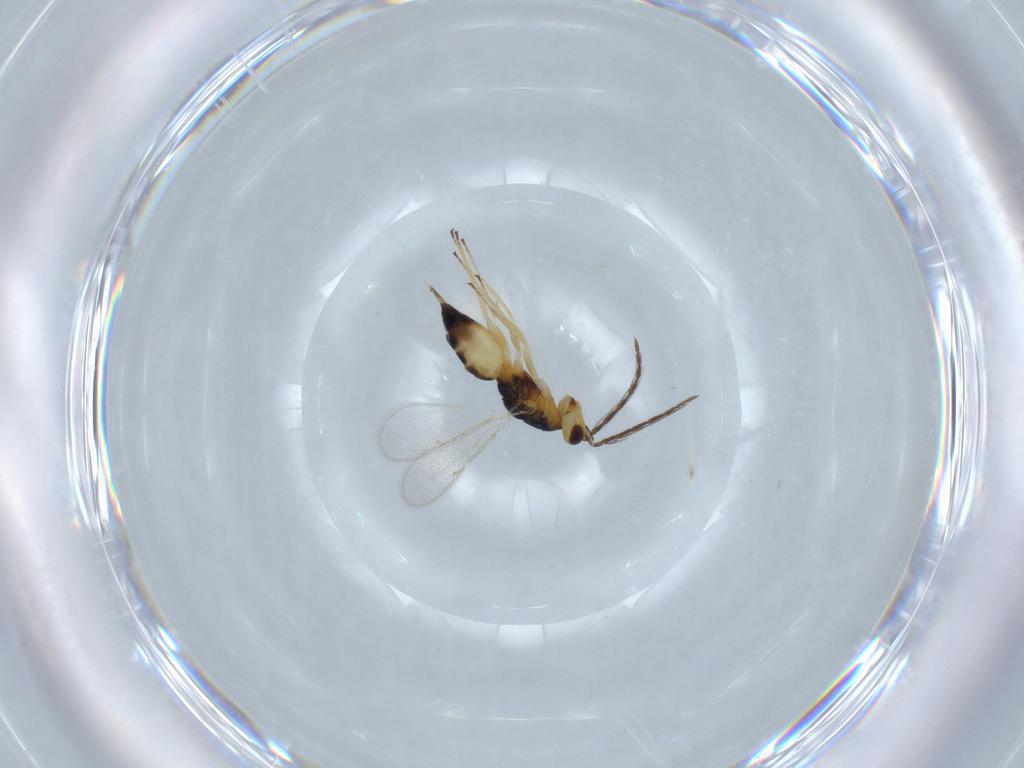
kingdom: Animalia
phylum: Arthropoda
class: Insecta
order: Hymenoptera
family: Eulophidae
